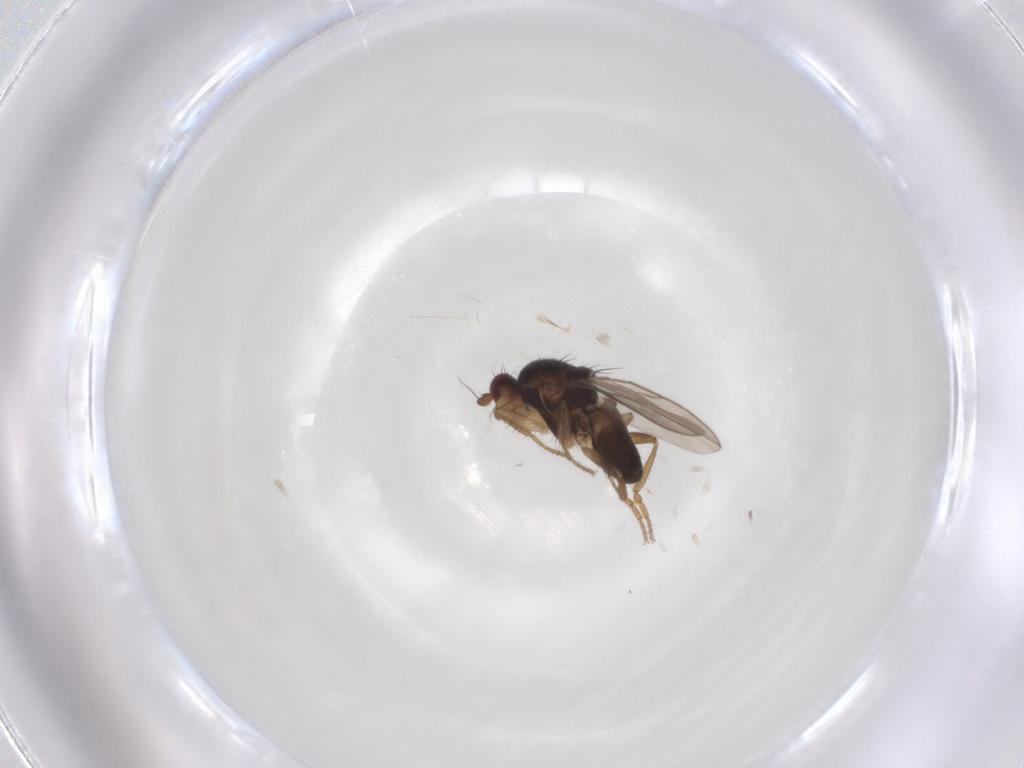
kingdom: Animalia
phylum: Arthropoda
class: Insecta
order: Diptera
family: Sphaeroceridae
